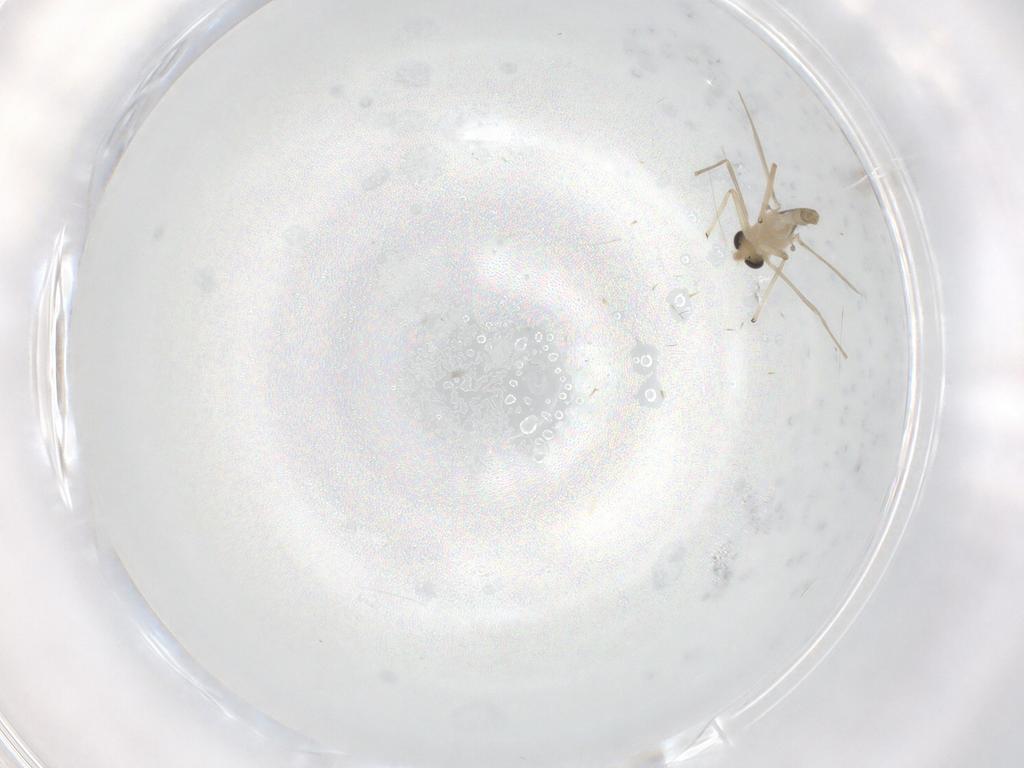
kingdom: Animalia
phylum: Arthropoda
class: Insecta
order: Diptera
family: Chironomidae
